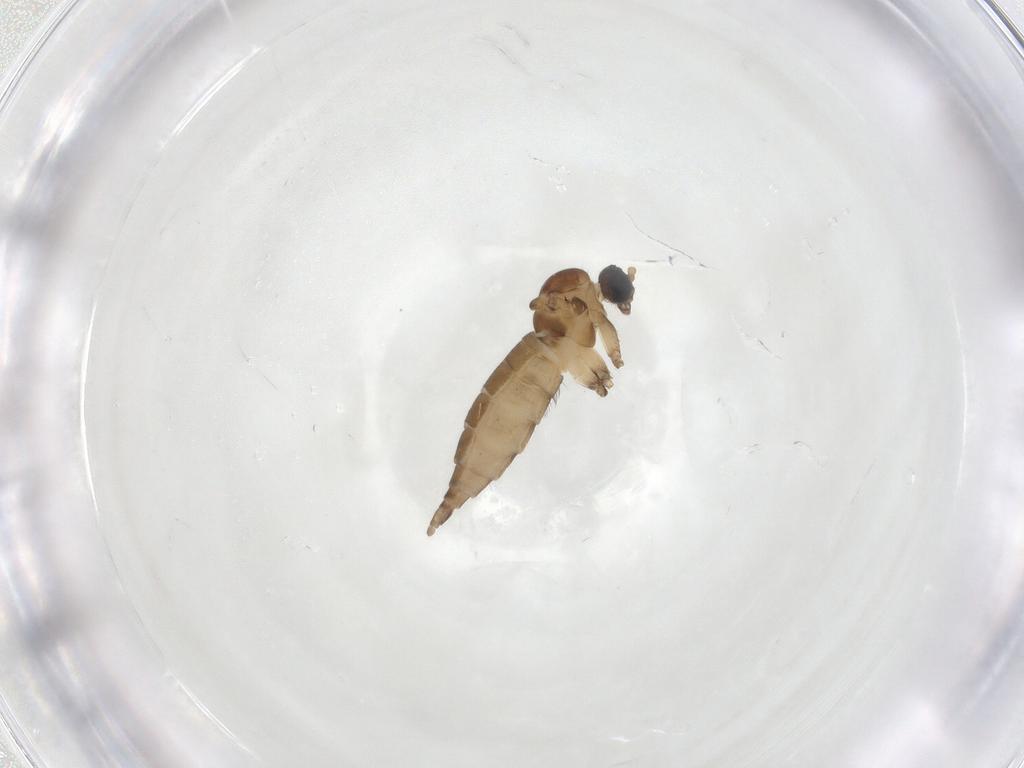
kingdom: Animalia
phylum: Arthropoda
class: Insecta
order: Diptera
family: Sciaridae
